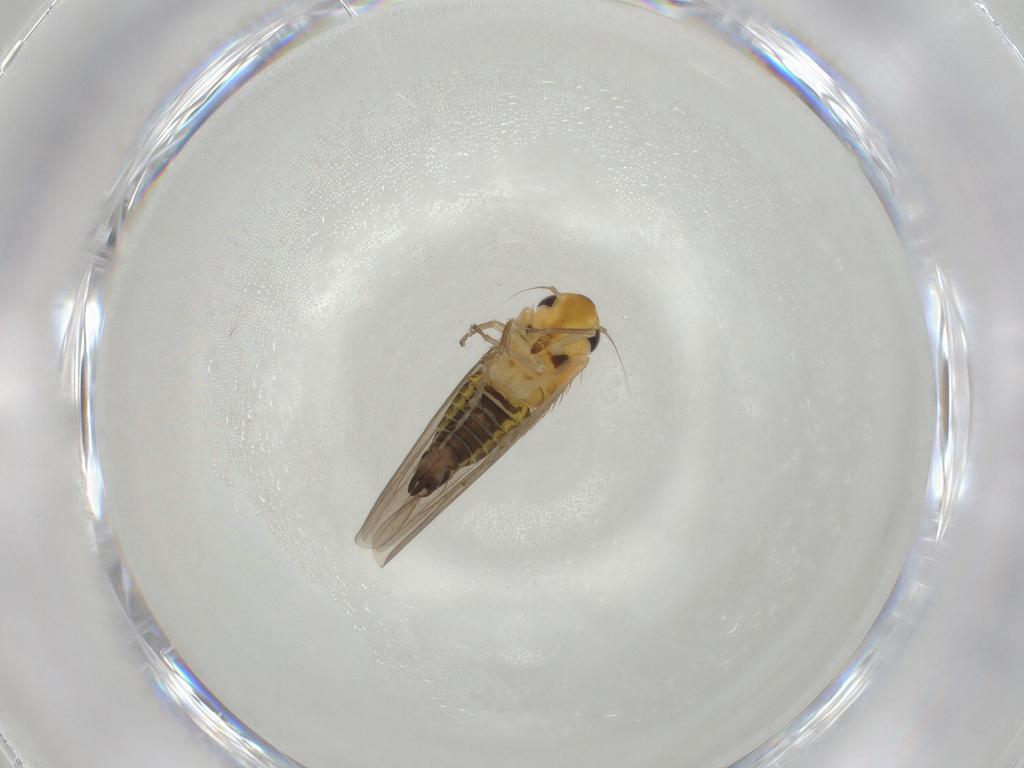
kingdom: Animalia
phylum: Arthropoda
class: Insecta
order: Hemiptera
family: Cicadellidae
